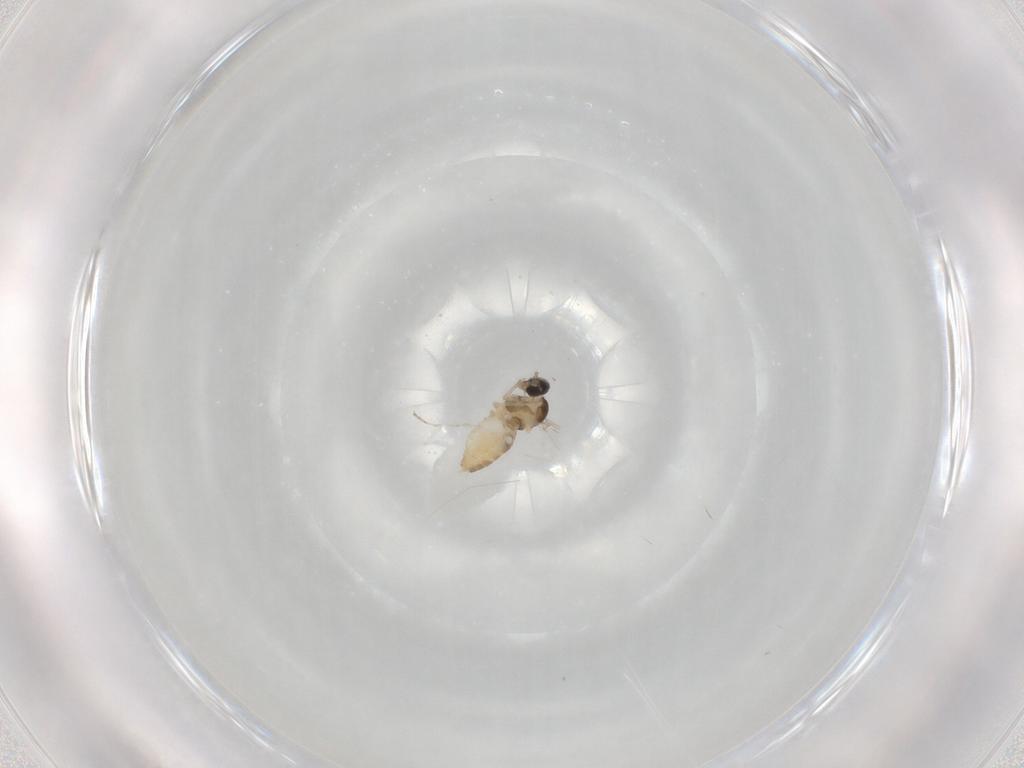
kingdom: Animalia
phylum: Arthropoda
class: Insecta
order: Diptera
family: Cecidomyiidae
